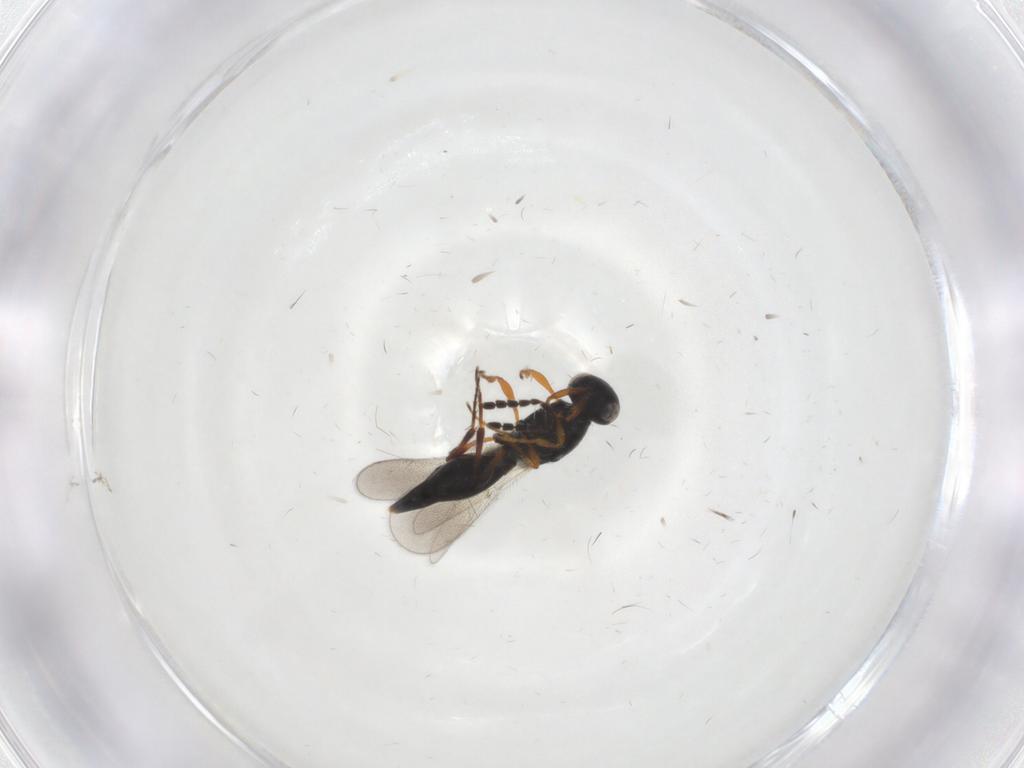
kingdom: Animalia
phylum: Arthropoda
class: Insecta
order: Hymenoptera
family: Platygastridae
